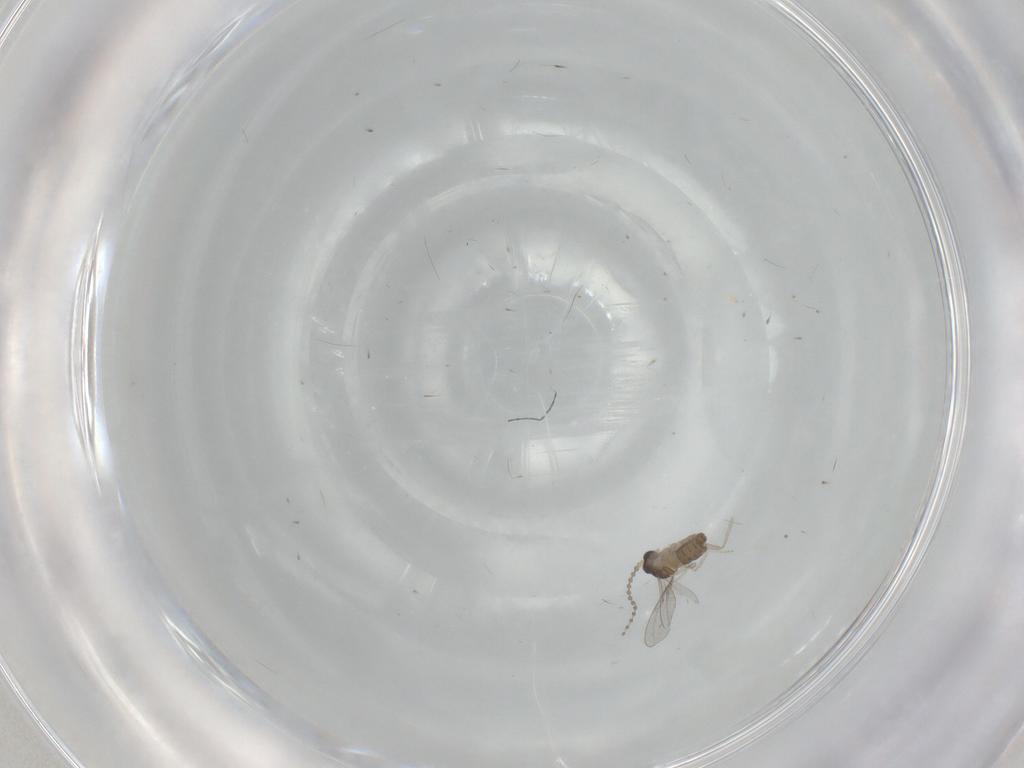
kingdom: Animalia
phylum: Arthropoda
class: Insecta
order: Diptera
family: Cecidomyiidae
